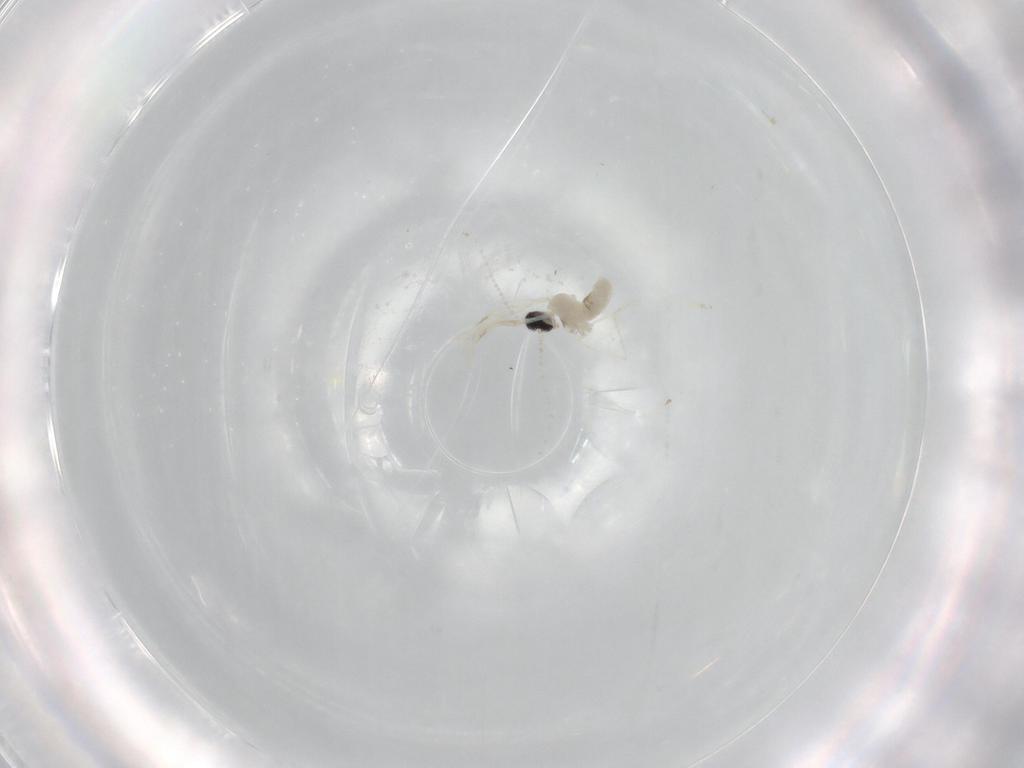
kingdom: Animalia
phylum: Arthropoda
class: Insecta
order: Diptera
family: Cecidomyiidae
